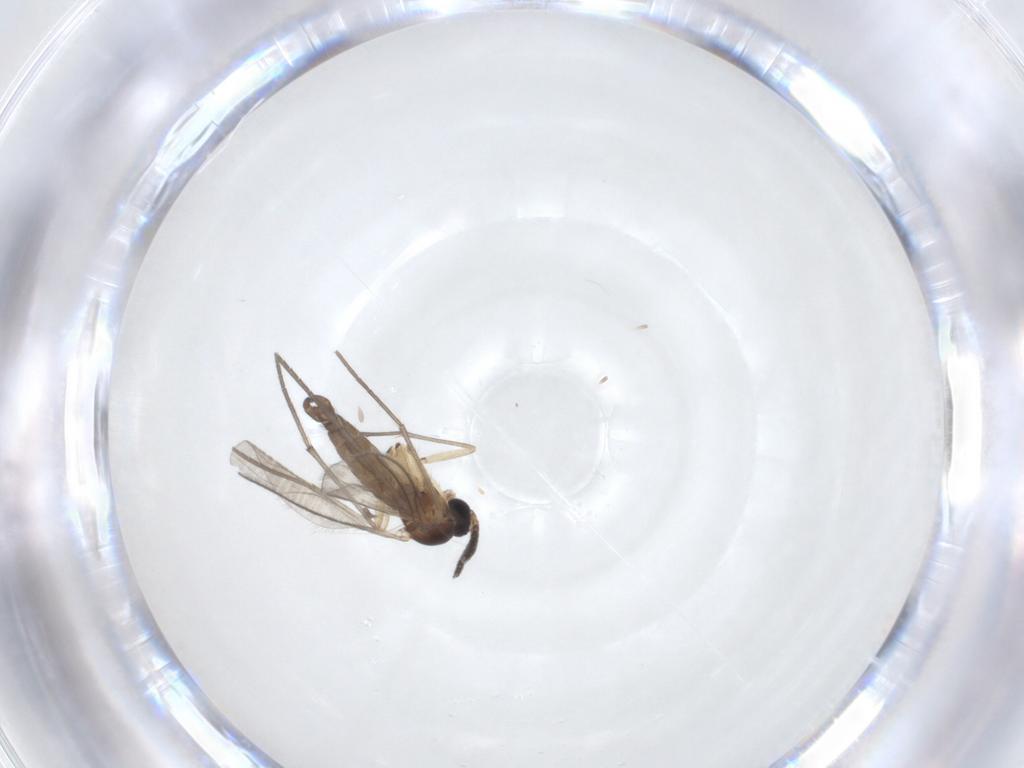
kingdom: Animalia
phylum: Arthropoda
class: Insecta
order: Diptera
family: Sciaridae
